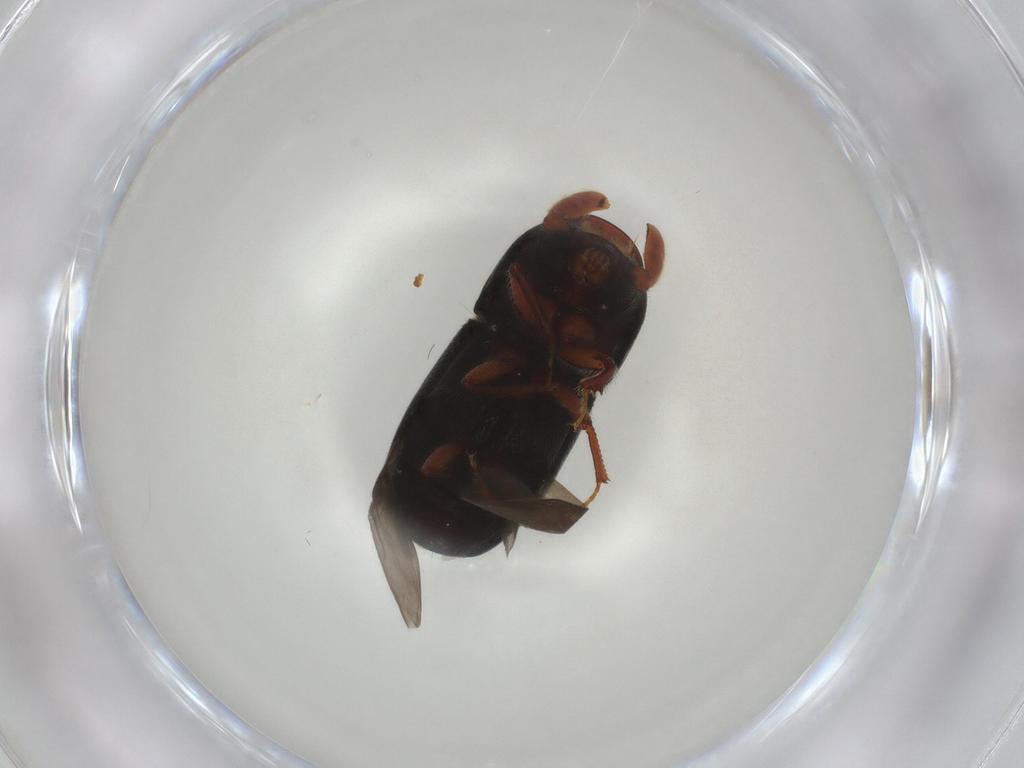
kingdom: Animalia
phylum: Arthropoda
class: Insecta
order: Coleoptera
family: Curculionidae
